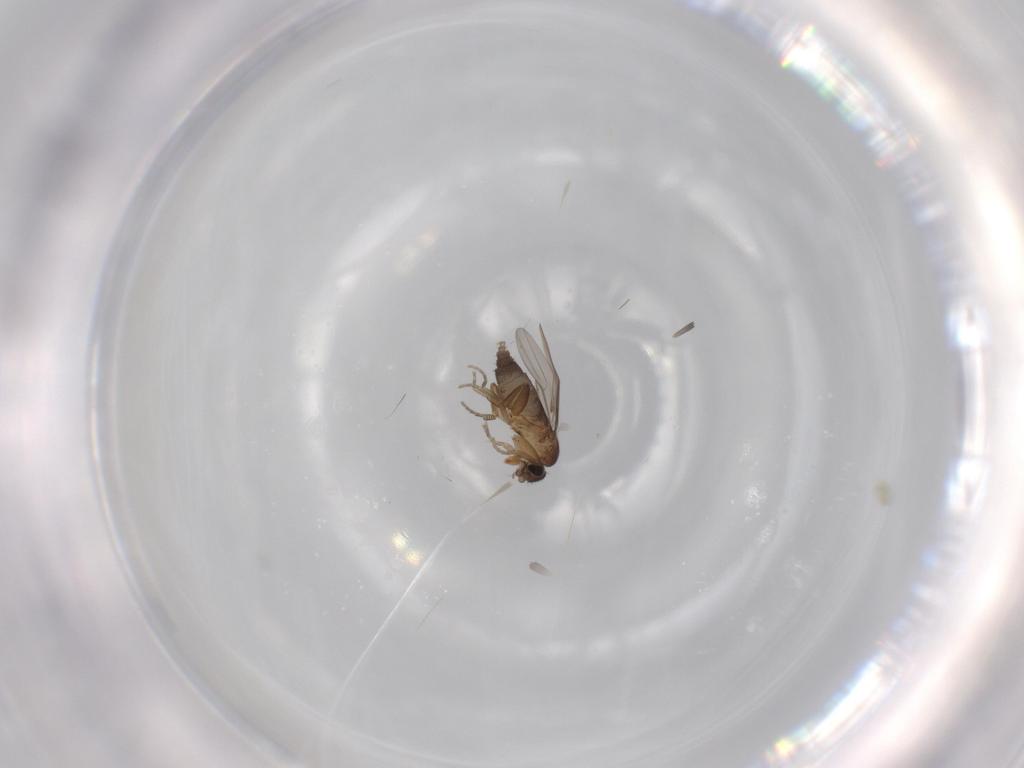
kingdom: Animalia
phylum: Arthropoda
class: Insecta
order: Diptera
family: Phoridae
